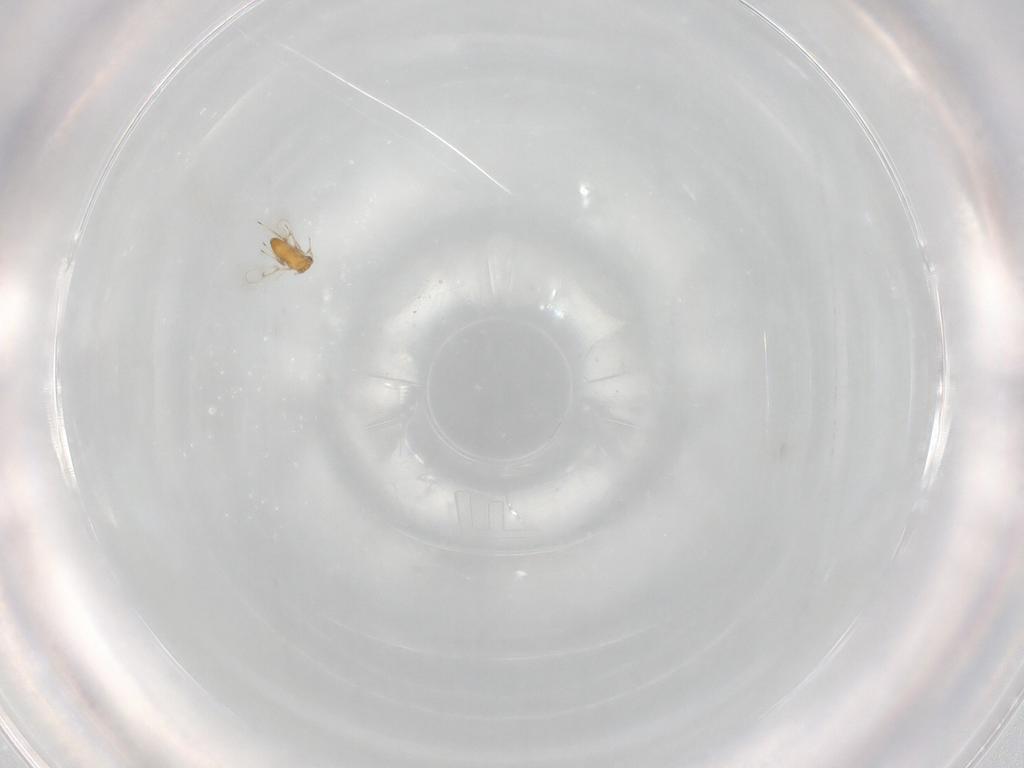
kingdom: Animalia
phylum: Arthropoda
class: Insecta
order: Hymenoptera
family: Trichogrammatidae
